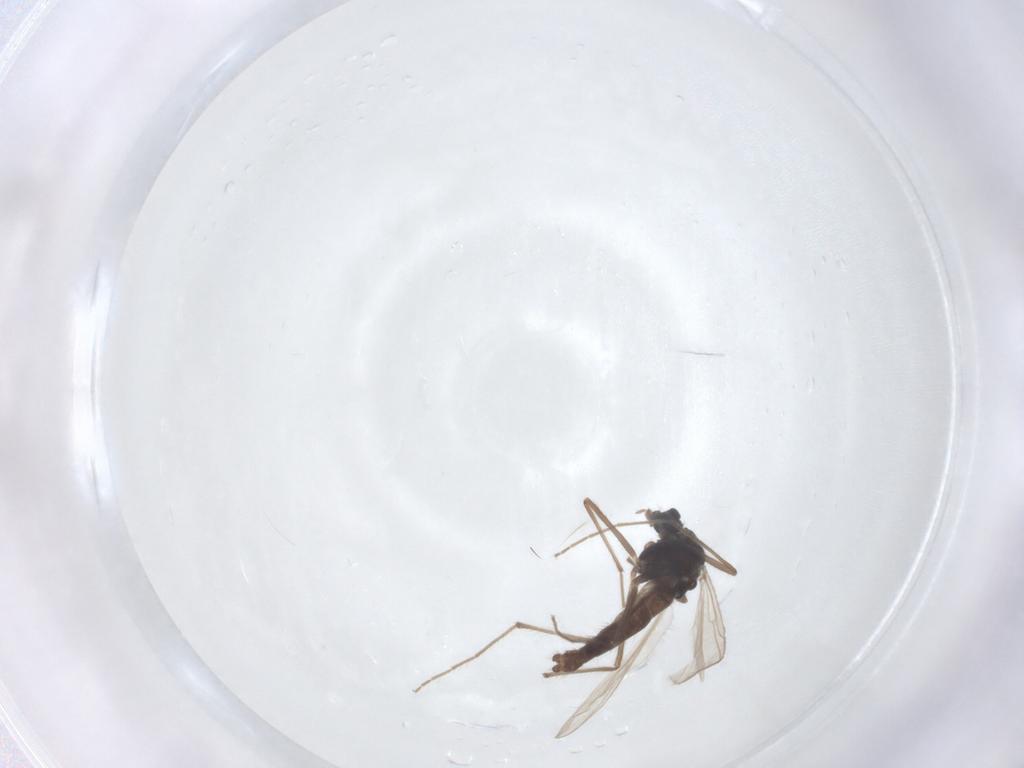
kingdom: Animalia
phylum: Arthropoda
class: Insecta
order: Diptera
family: Chironomidae
